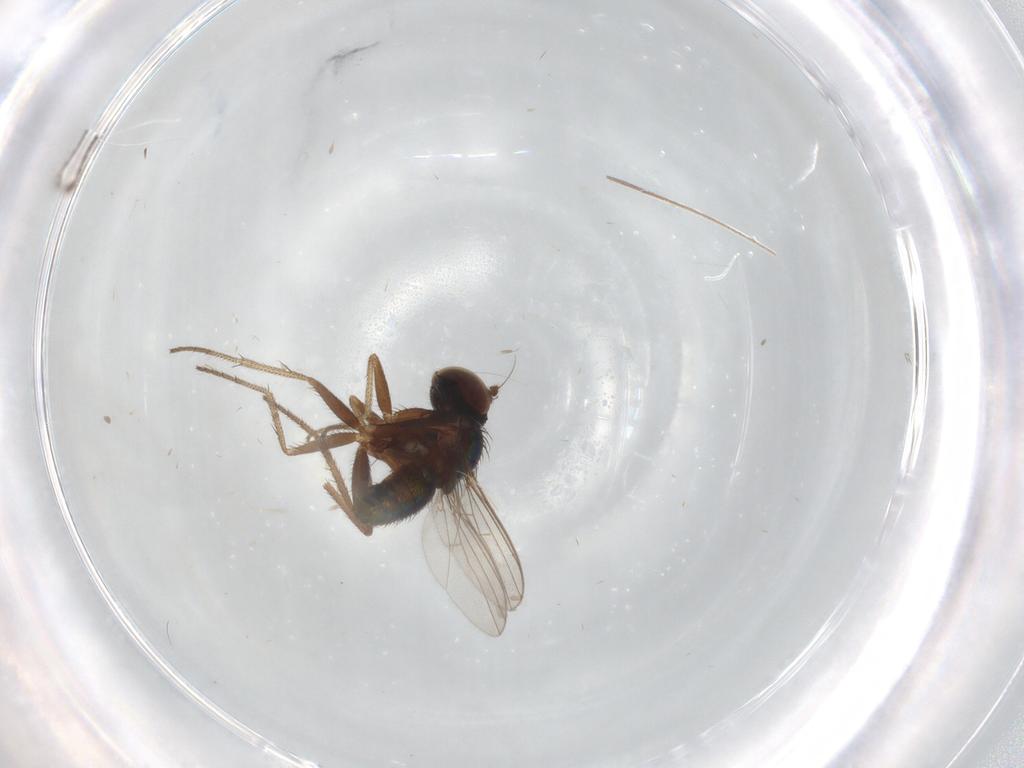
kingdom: Animalia
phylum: Arthropoda
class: Insecta
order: Diptera
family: Dolichopodidae
